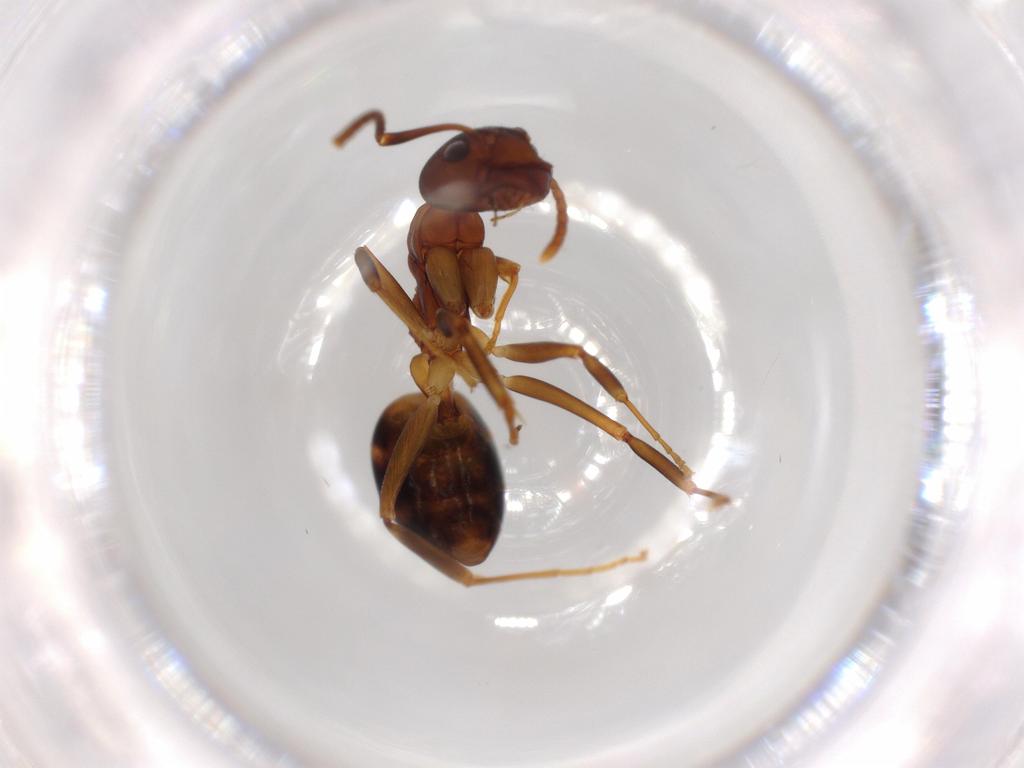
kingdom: Animalia
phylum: Arthropoda
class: Insecta
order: Hymenoptera
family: Formicidae
